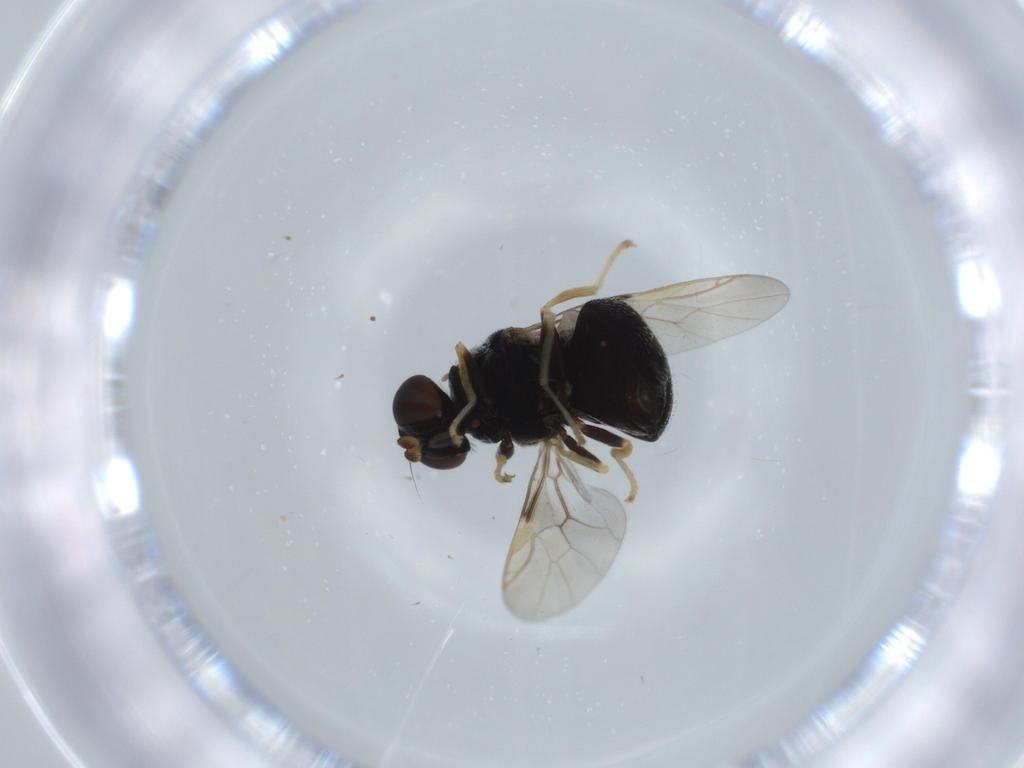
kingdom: Animalia
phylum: Arthropoda
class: Insecta
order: Diptera
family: Stratiomyidae
